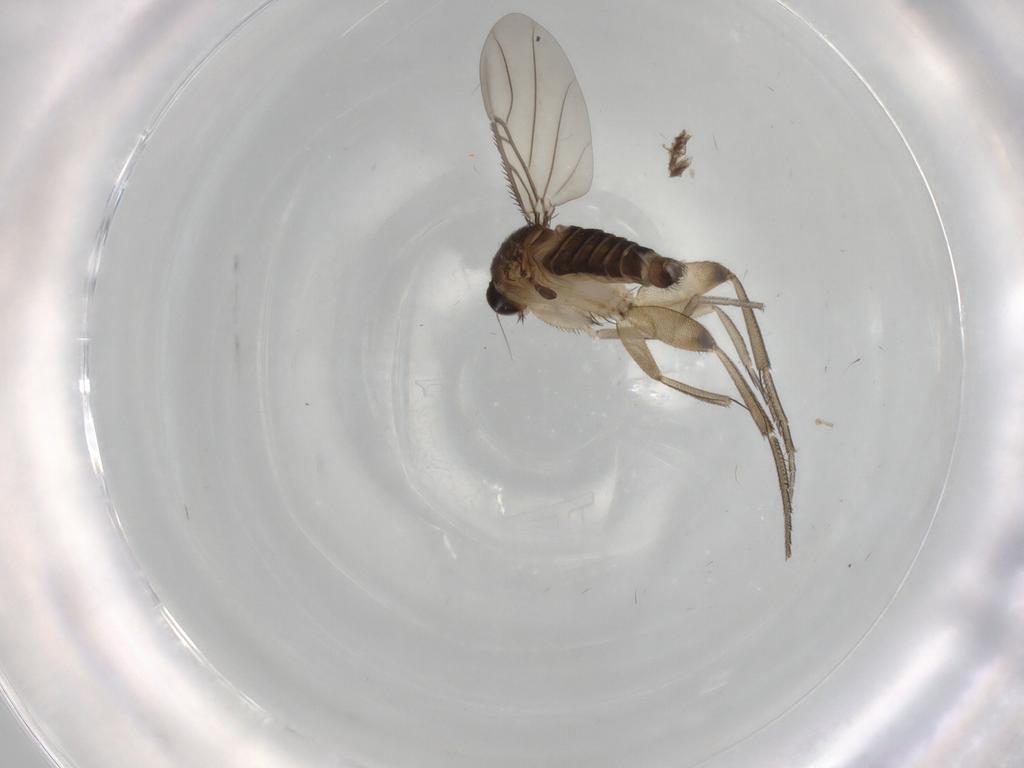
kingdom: Animalia
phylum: Arthropoda
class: Insecta
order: Diptera
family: Phoridae
